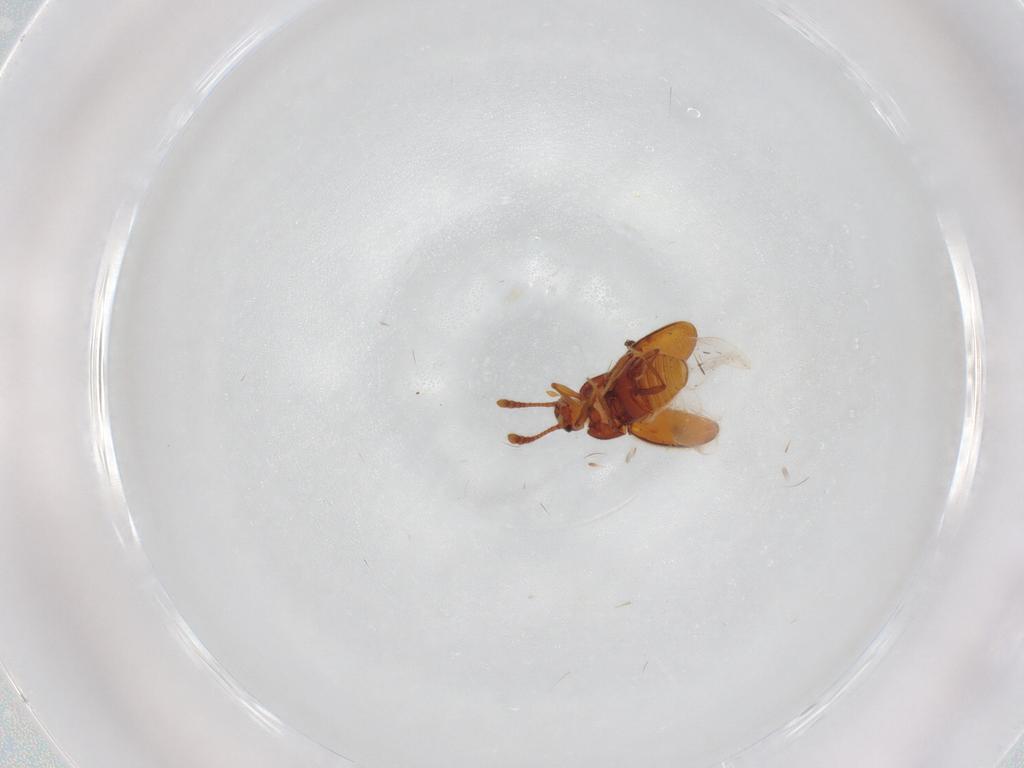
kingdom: Animalia
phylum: Arthropoda
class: Insecta
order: Coleoptera
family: Staphylinidae
